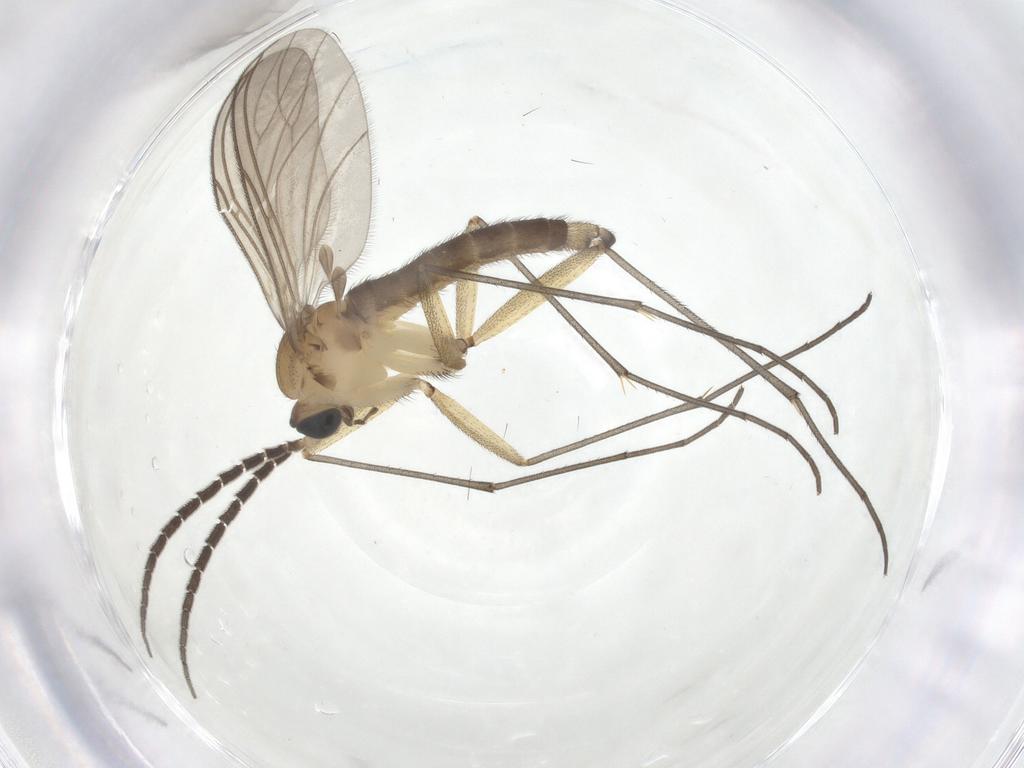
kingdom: Animalia
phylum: Arthropoda
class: Insecta
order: Diptera
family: Sciaridae
